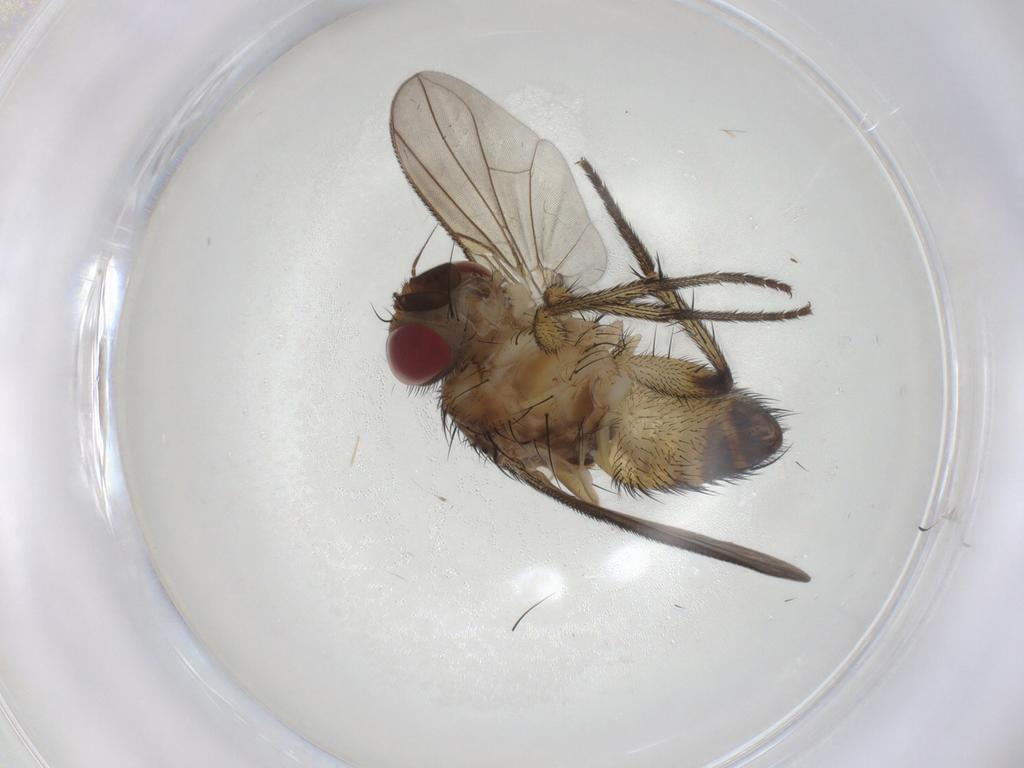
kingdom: Animalia
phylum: Arthropoda
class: Insecta
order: Diptera
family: Tachinidae
